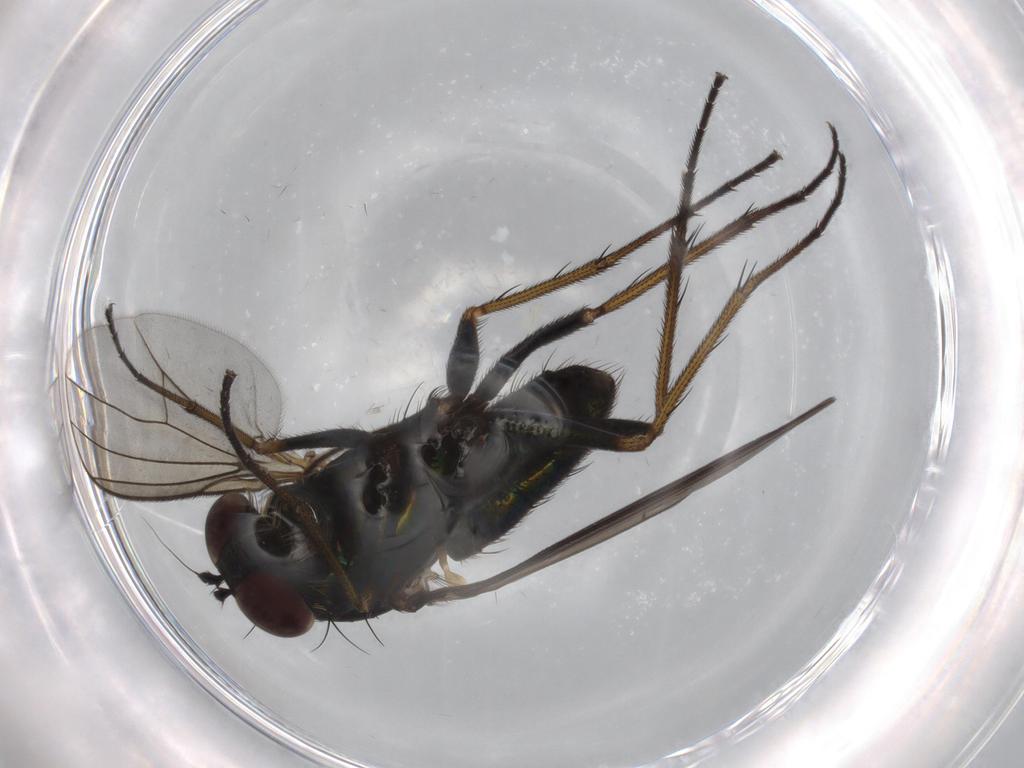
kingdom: Animalia
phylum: Arthropoda
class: Insecta
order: Diptera
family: Dolichopodidae
